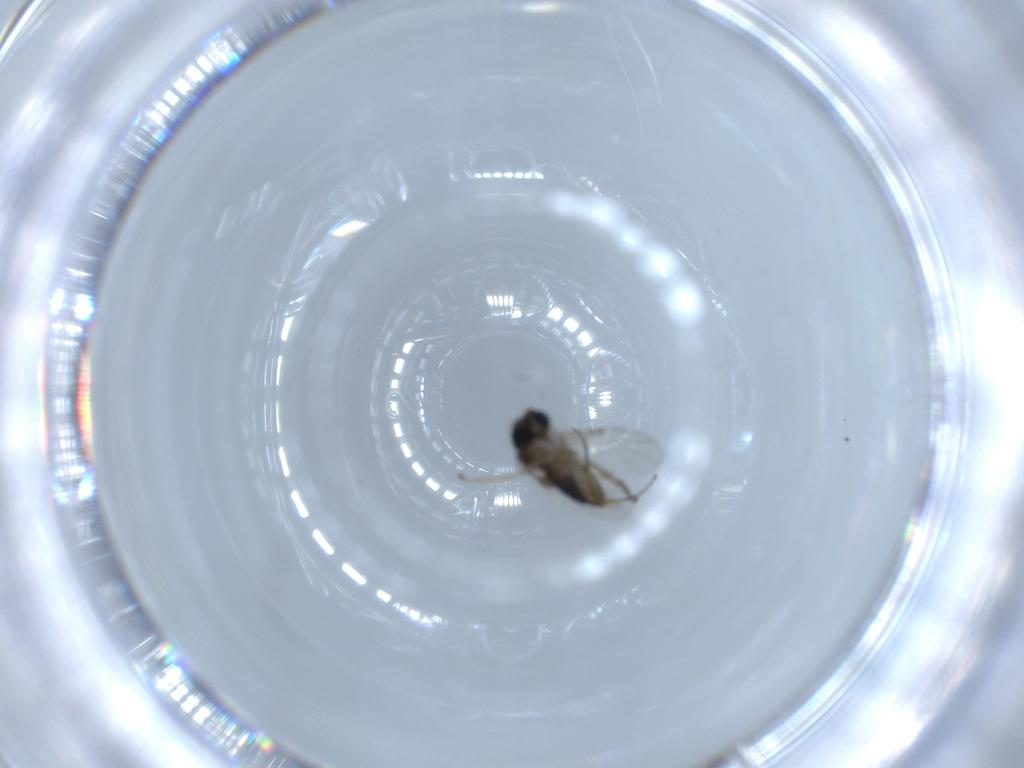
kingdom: Animalia
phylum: Arthropoda
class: Insecta
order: Diptera
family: Phoridae
